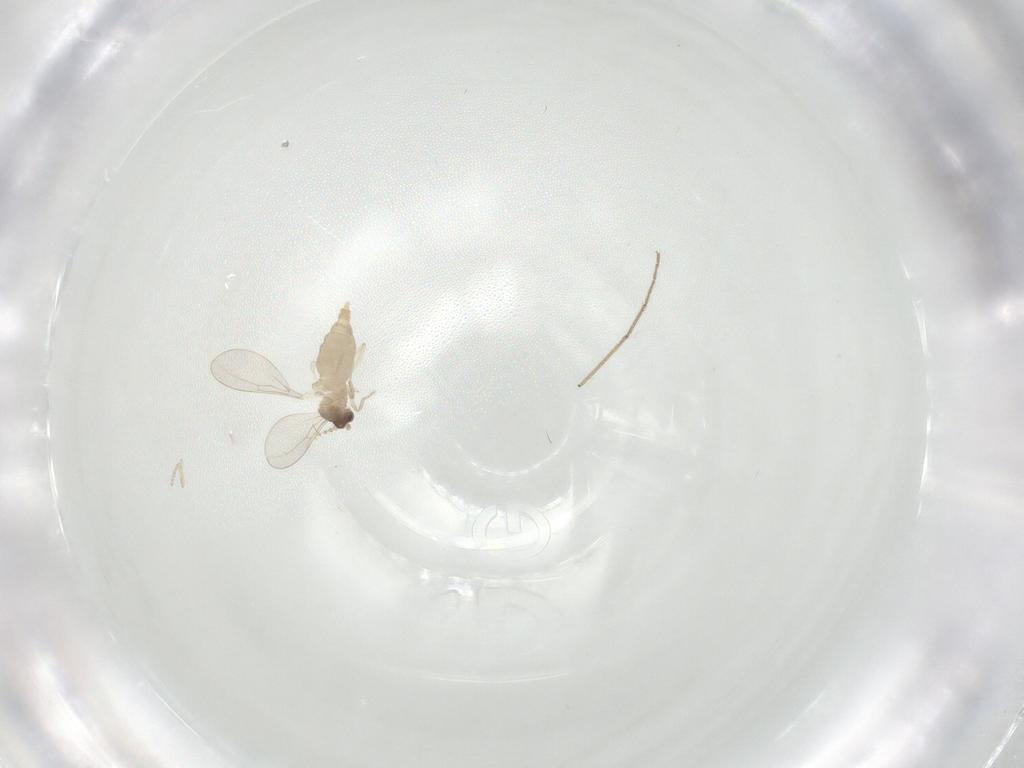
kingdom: Animalia
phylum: Arthropoda
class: Insecta
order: Diptera
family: Cecidomyiidae
